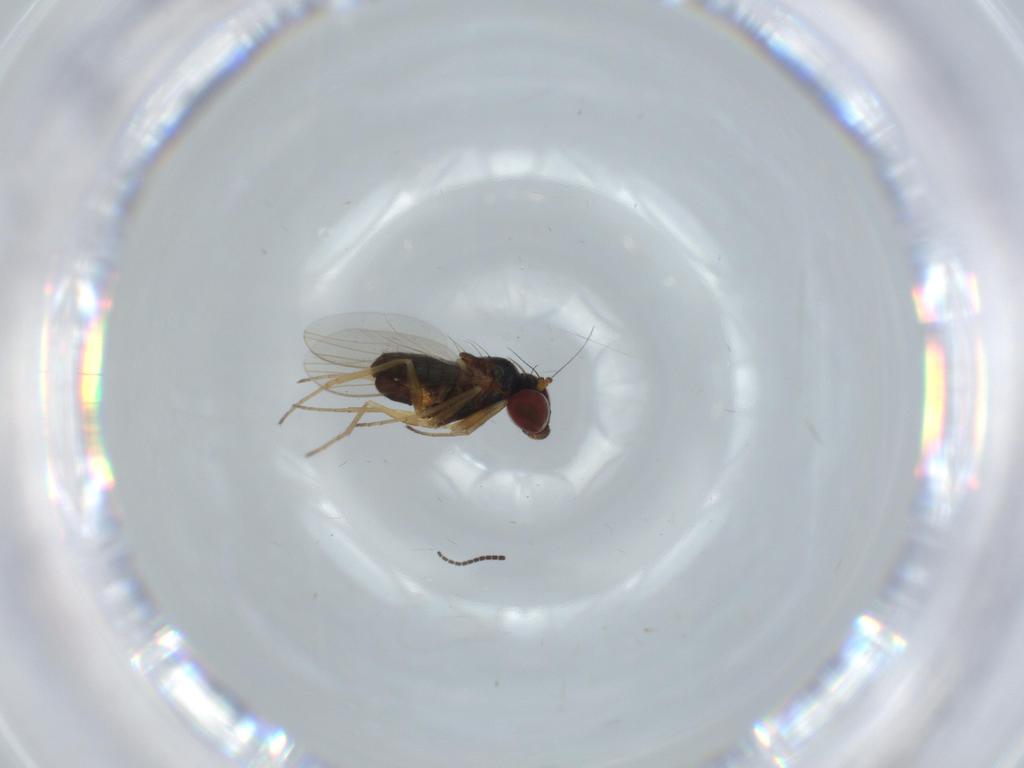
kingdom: Animalia
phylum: Arthropoda
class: Insecta
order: Diptera
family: Dolichopodidae
